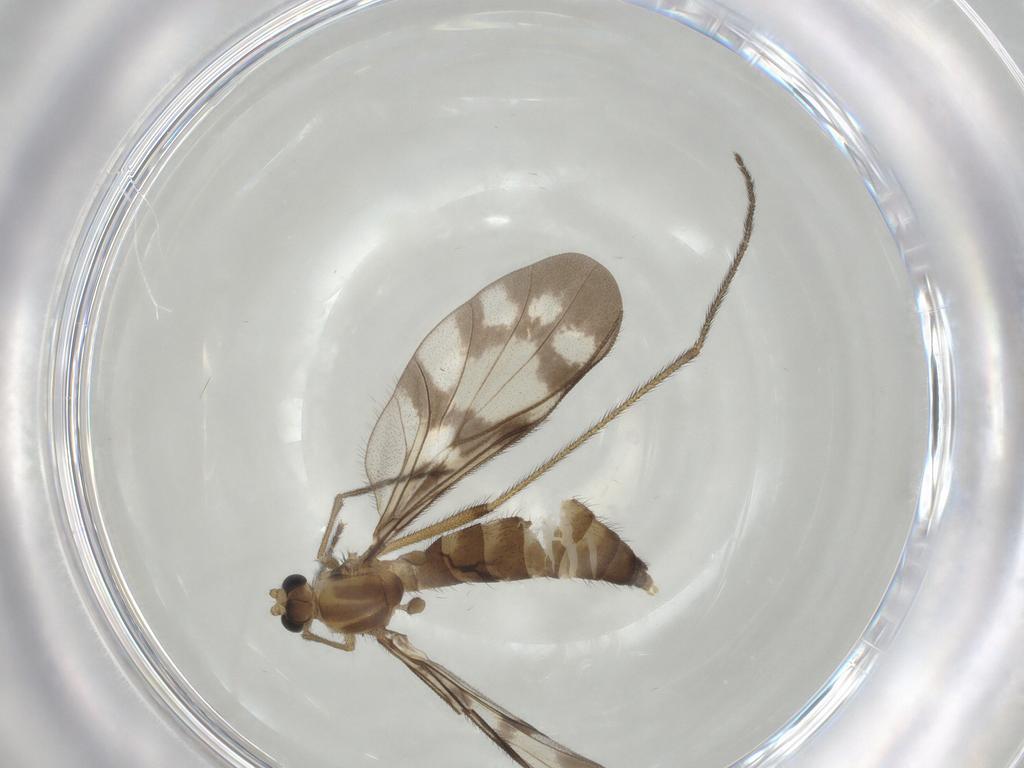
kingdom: Animalia
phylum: Arthropoda
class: Insecta
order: Diptera
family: Keroplatidae
